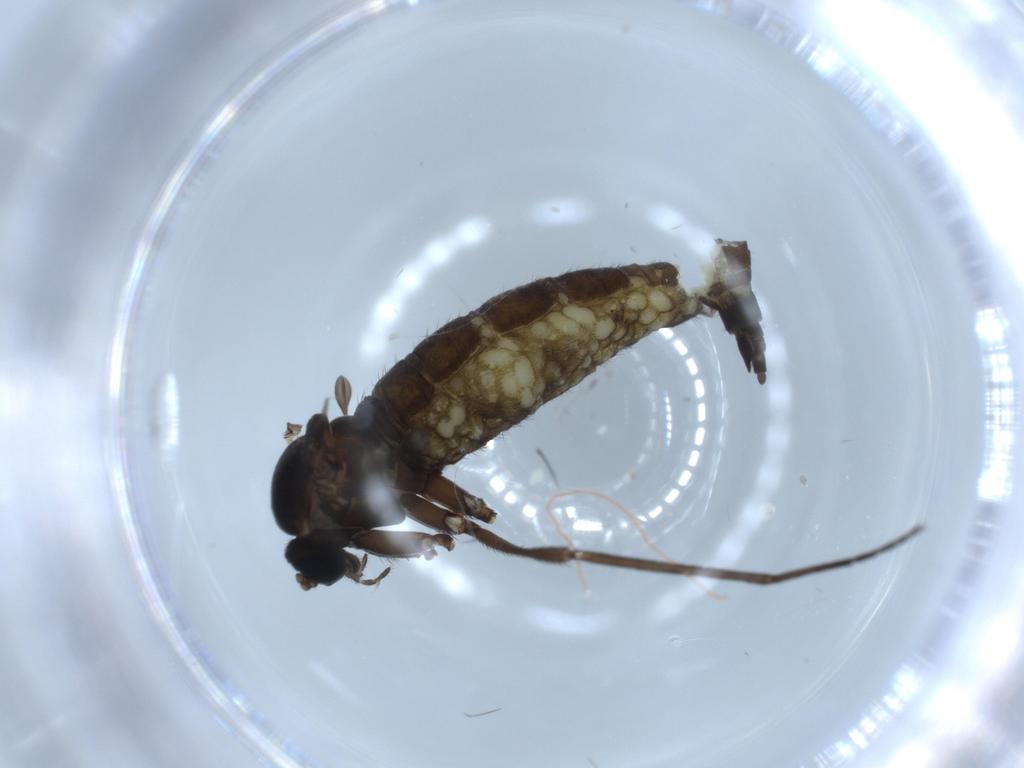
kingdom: Animalia
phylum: Arthropoda
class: Insecta
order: Diptera
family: Sciaridae
